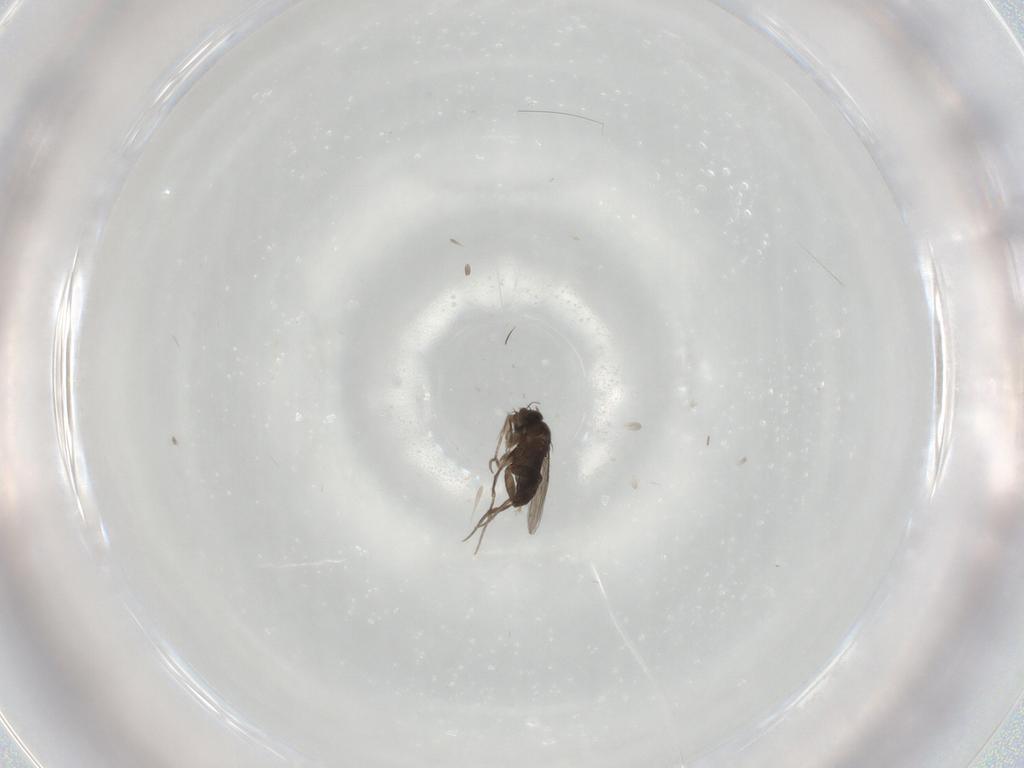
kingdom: Animalia
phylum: Arthropoda
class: Insecta
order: Diptera
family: Phoridae
